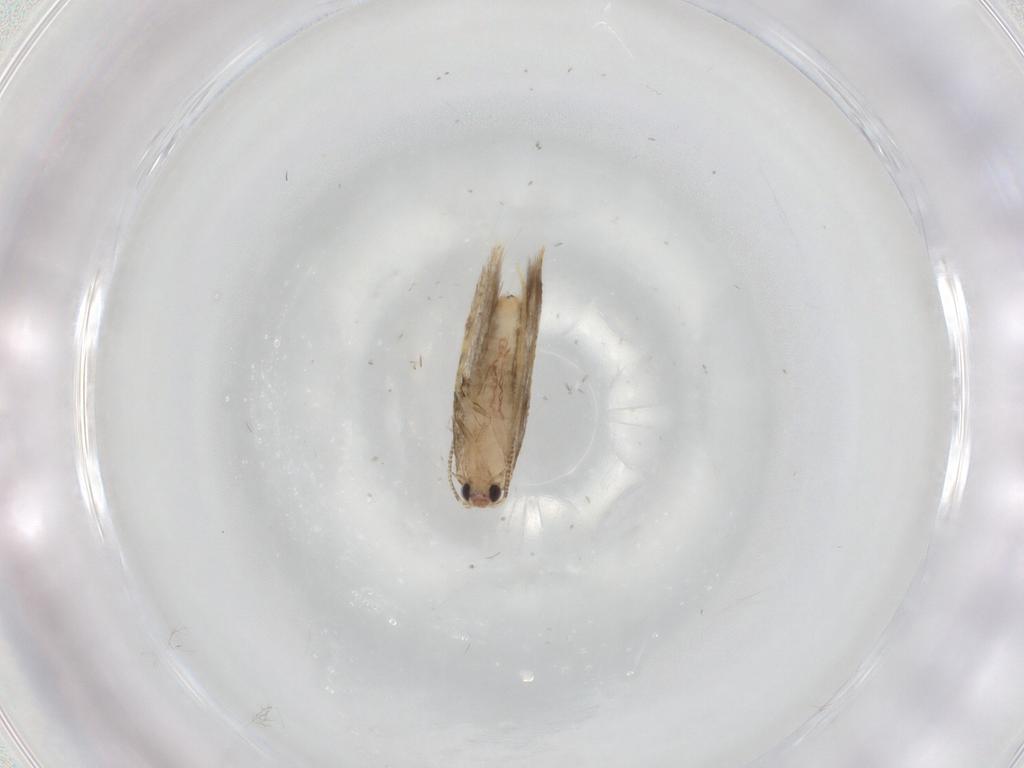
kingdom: Animalia
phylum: Arthropoda
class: Insecta
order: Lepidoptera
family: Tineidae
